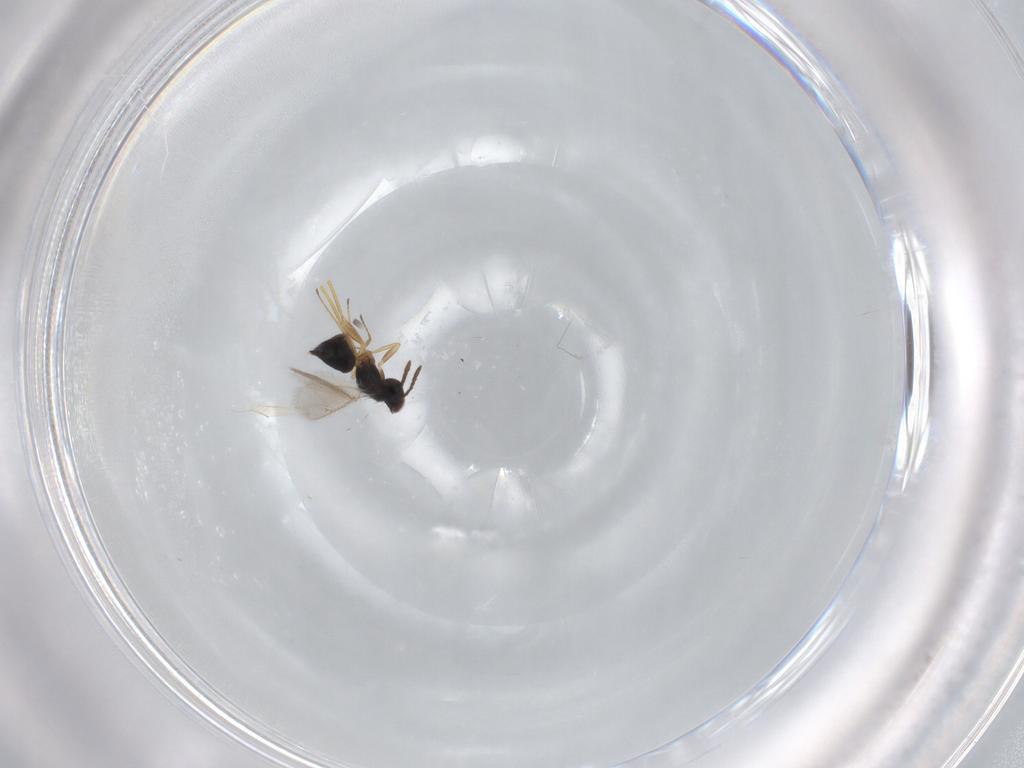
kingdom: Animalia
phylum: Arthropoda
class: Insecta
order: Hymenoptera
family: Tetracampidae
